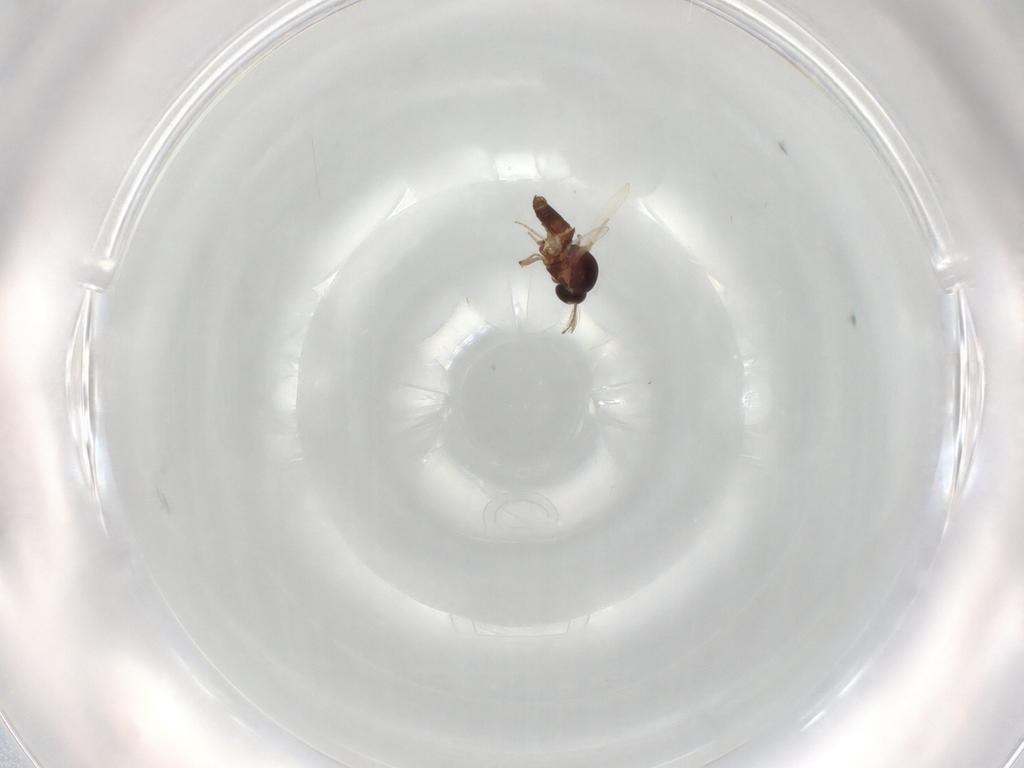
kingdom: Animalia
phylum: Arthropoda
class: Insecta
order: Diptera
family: Ceratopogonidae
